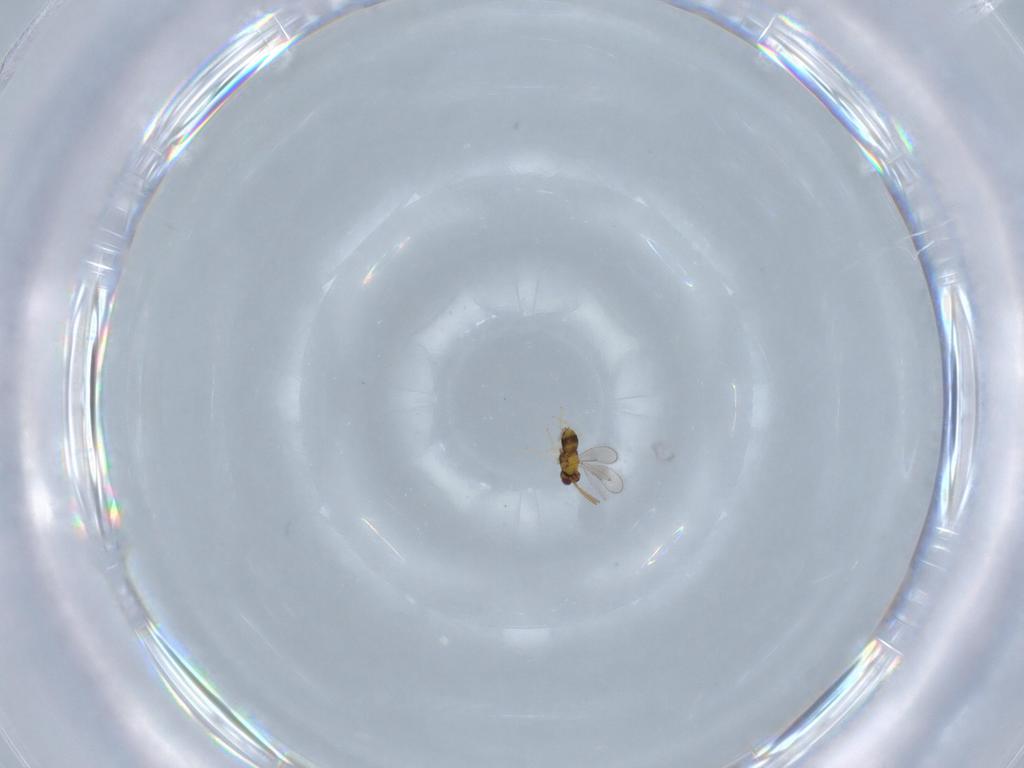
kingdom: Animalia
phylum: Arthropoda
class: Insecta
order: Hymenoptera
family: Aphelinidae
